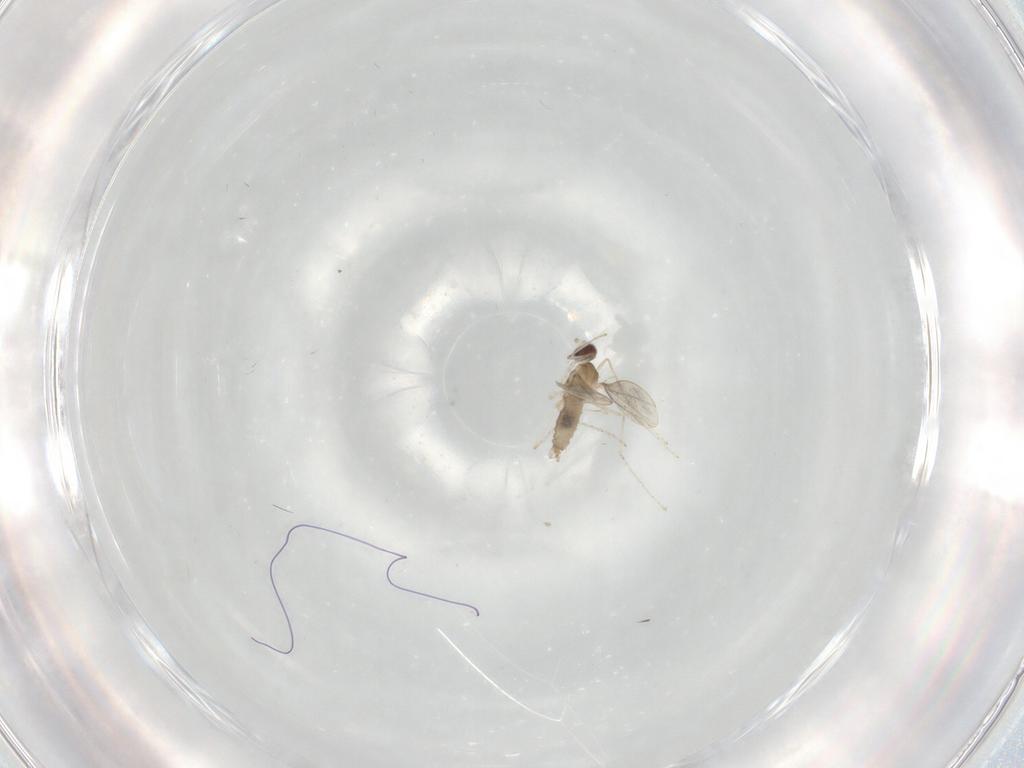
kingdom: Animalia
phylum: Arthropoda
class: Insecta
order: Diptera
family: Cecidomyiidae
